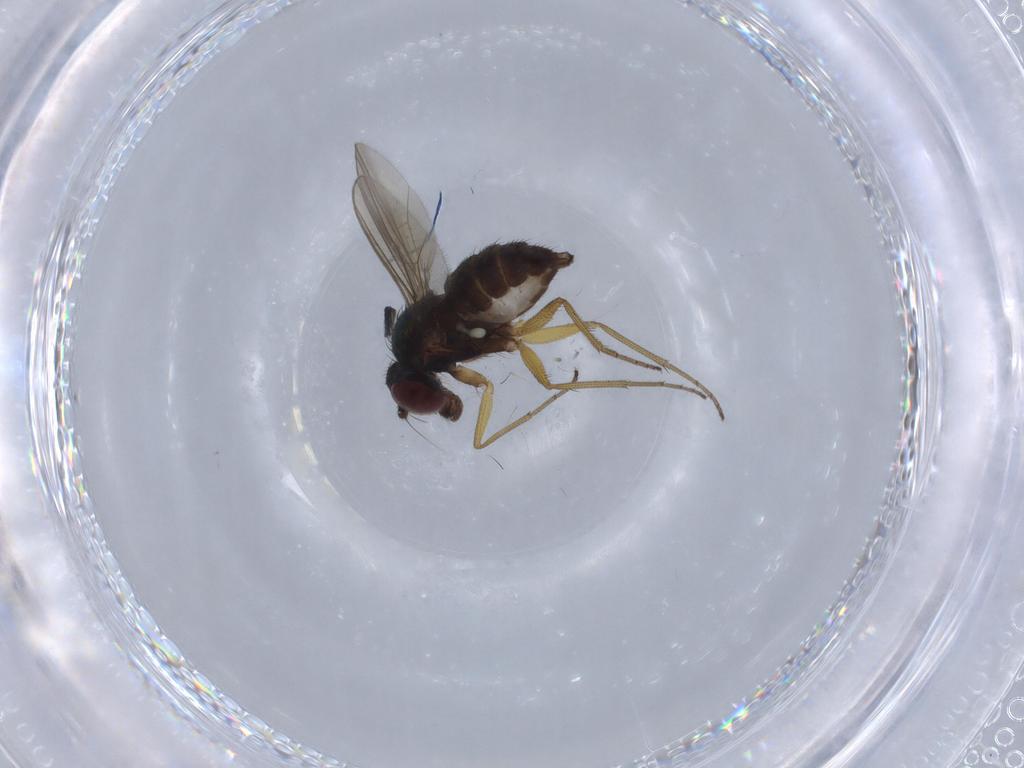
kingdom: Animalia
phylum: Arthropoda
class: Insecta
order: Diptera
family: Dolichopodidae
